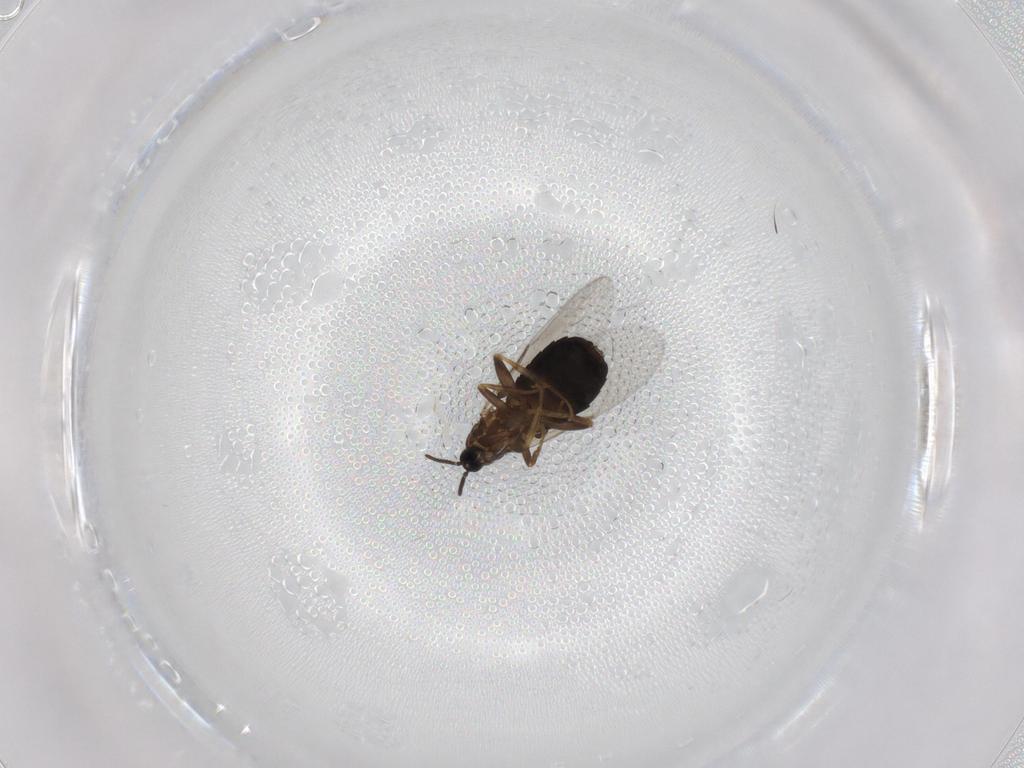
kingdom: Animalia
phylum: Arthropoda
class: Insecta
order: Diptera
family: Scatopsidae
